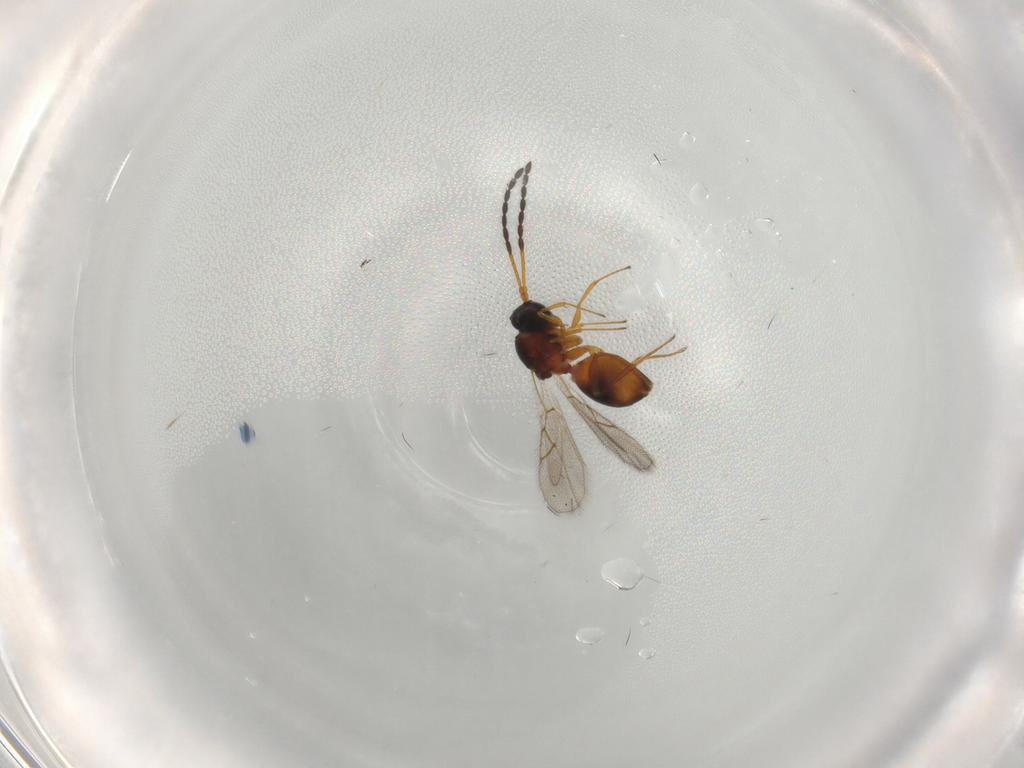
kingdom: Animalia
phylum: Arthropoda
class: Insecta
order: Hymenoptera
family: Figitidae
